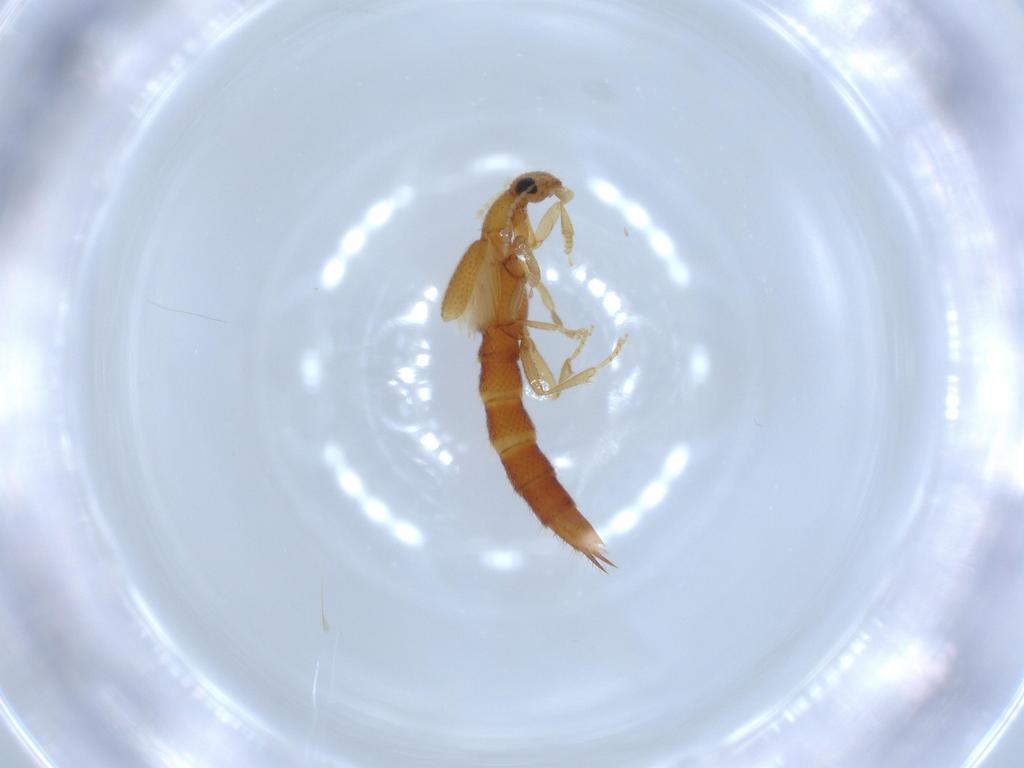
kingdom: Animalia
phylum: Arthropoda
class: Insecta
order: Coleoptera
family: Staphylinidae
